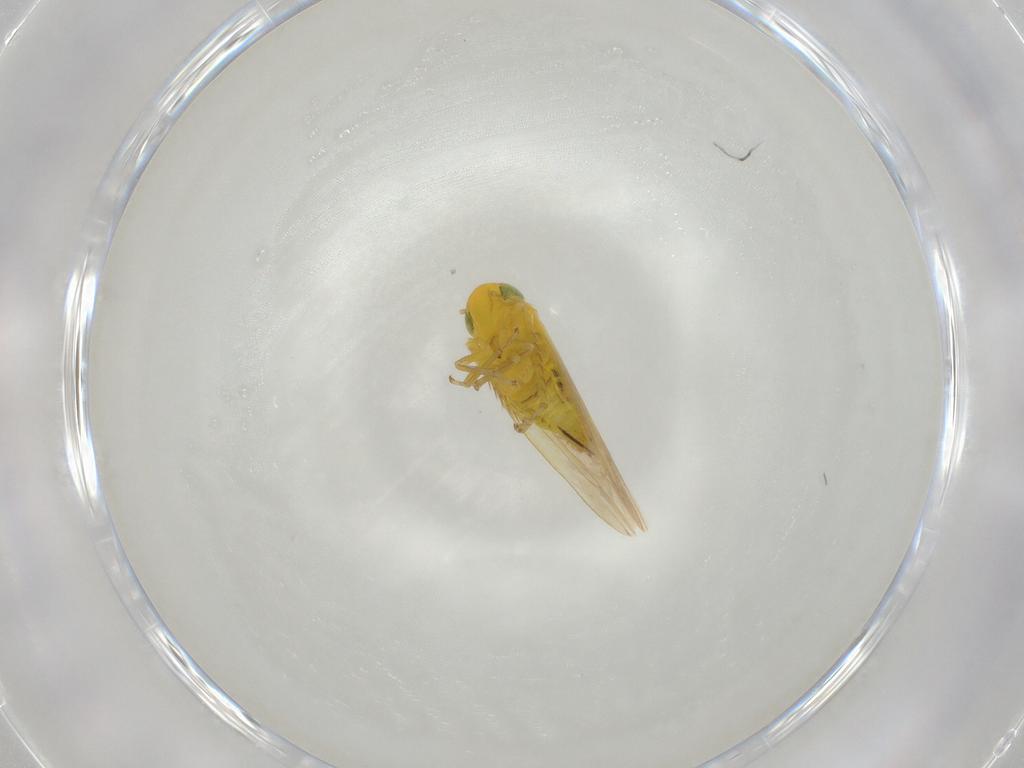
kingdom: Animalia
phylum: Arthropoda
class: Insecta
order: Hemiptera
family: Miridae
